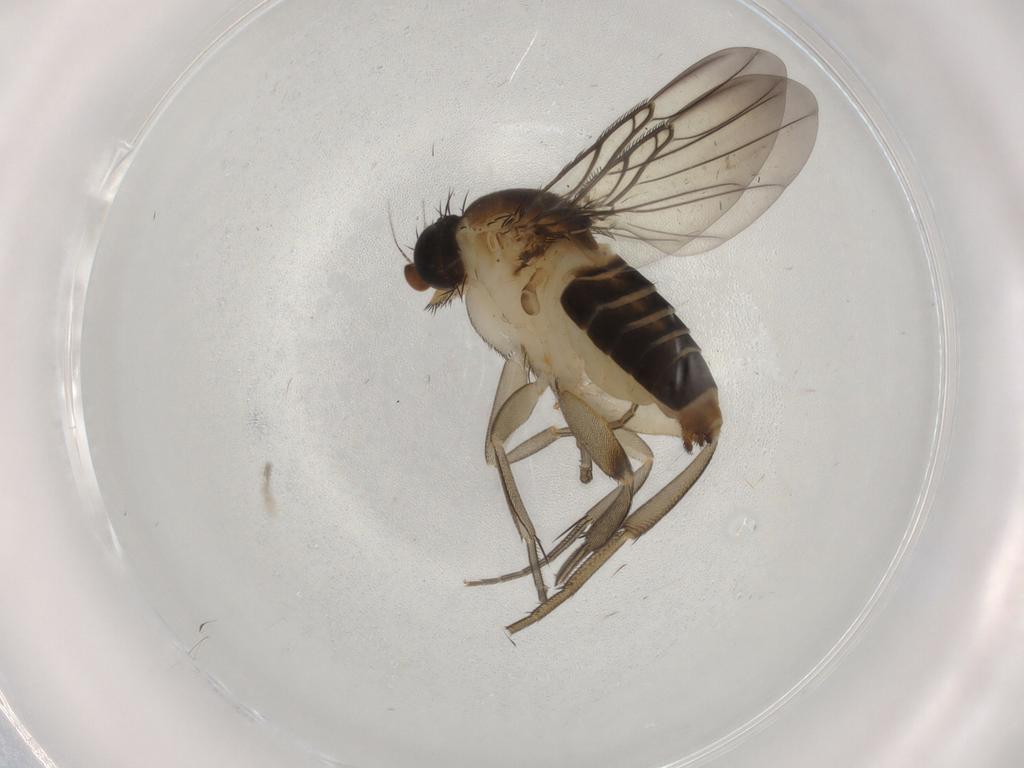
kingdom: Animalia
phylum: Arthropoda
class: Insecta
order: Diptera
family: Phoridae
